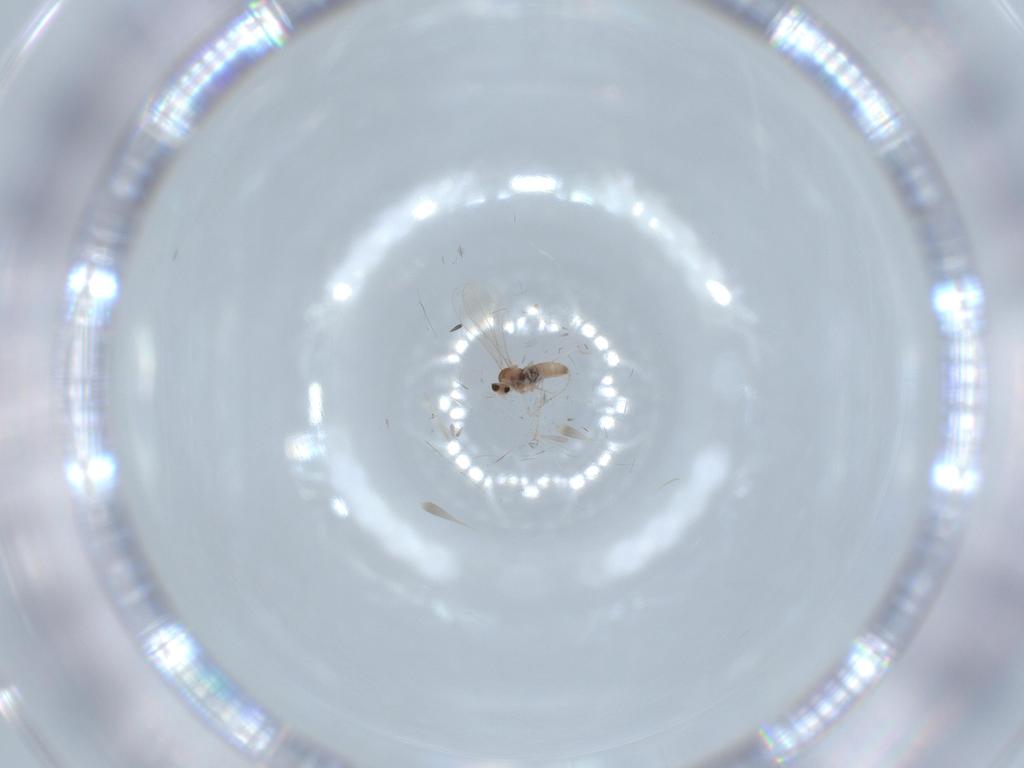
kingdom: Animalia
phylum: Arthropoda
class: Insecta
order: Diptera
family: Cecidomyiidae
